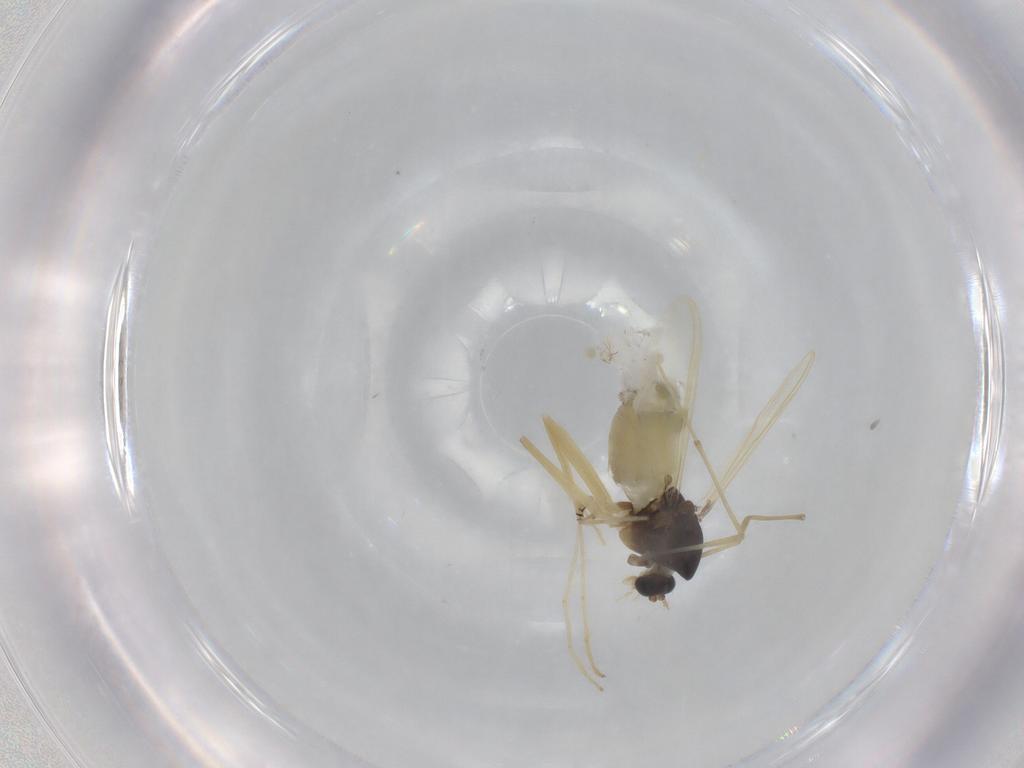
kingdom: Animalia
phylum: Arthropoda
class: Insecta
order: Diptera
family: Chironomidae
